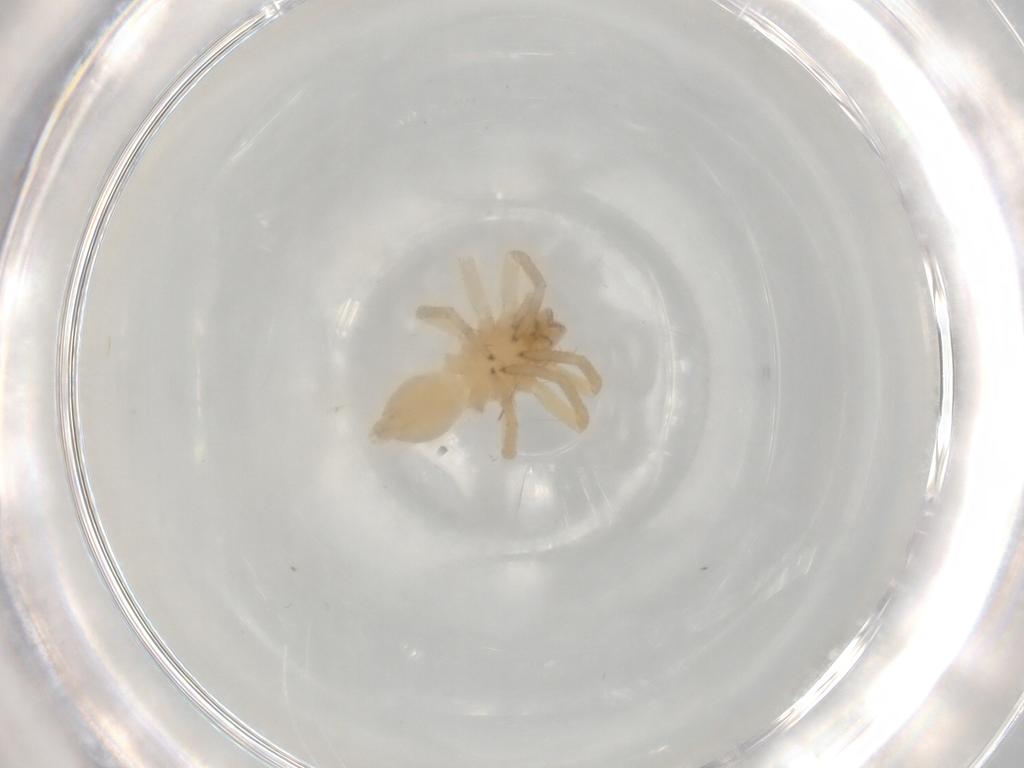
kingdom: Animalia
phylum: Arthropoda
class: Arachnida
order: Araneae
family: Clubionidae
